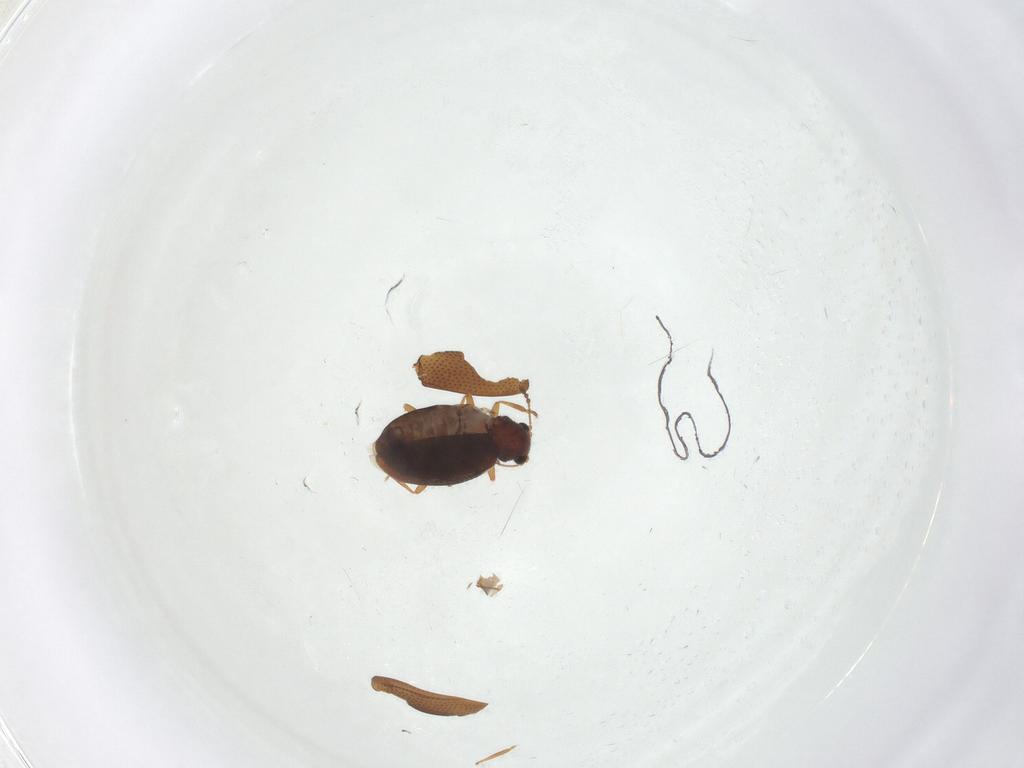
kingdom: Animalia
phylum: Arthropoda
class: Insecta
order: Coleoptera
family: Latridiidae
